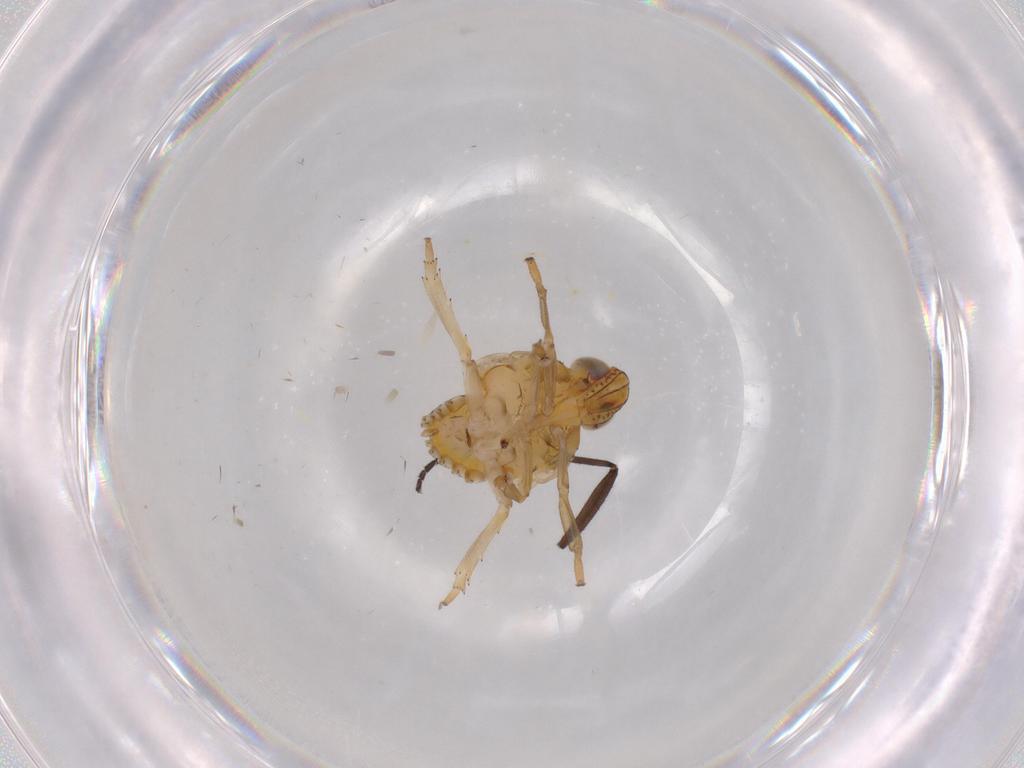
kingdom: Animalia
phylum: Arthropoda
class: Insecta
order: Hemiptera
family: Issidae
